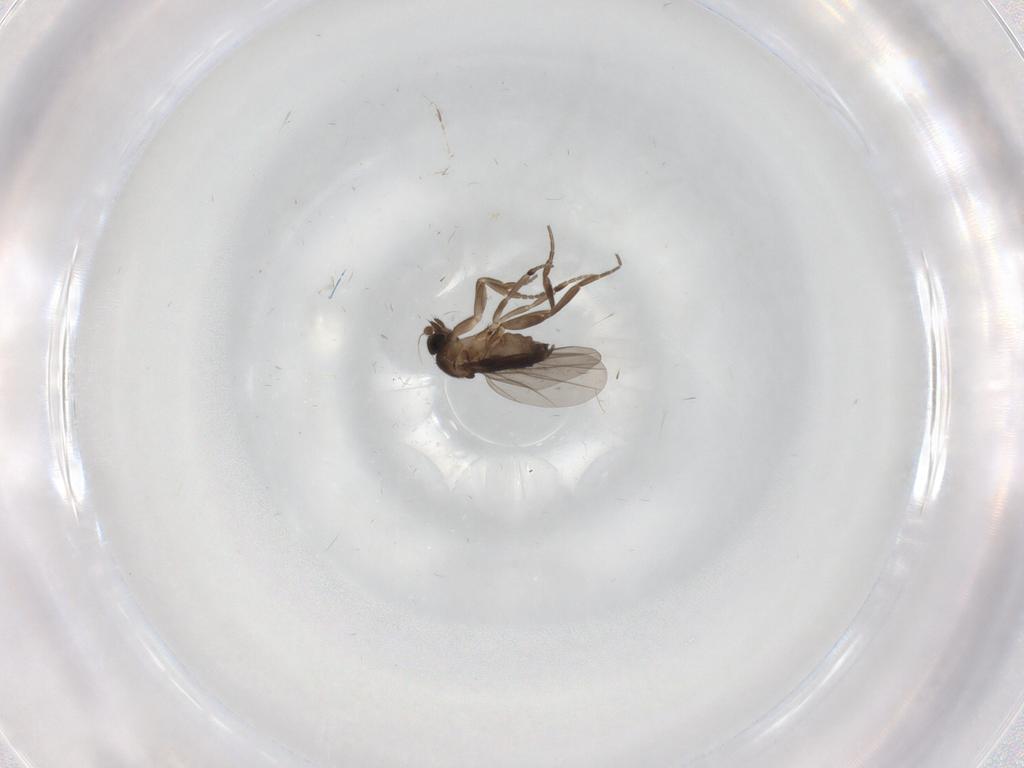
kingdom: Animalia
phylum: Arthropoda
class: Insecta
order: Diptera
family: Phoridae
